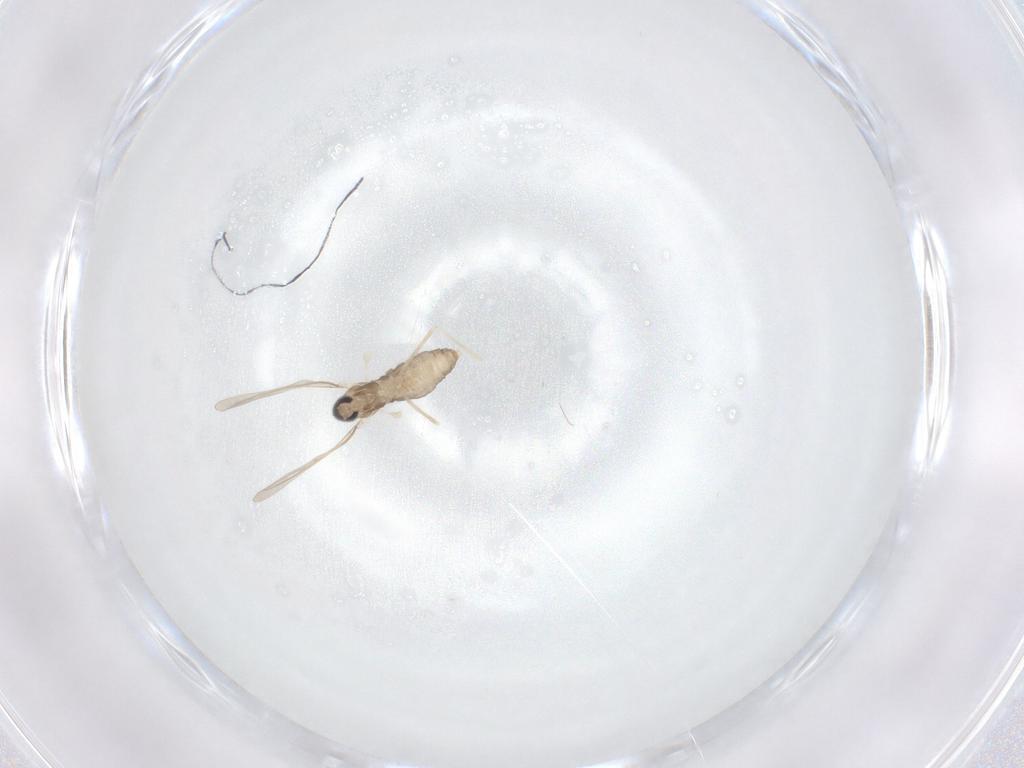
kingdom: Animalia
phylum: Arthropoda
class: Insecta
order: Diptera
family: Cecidomyiidae
